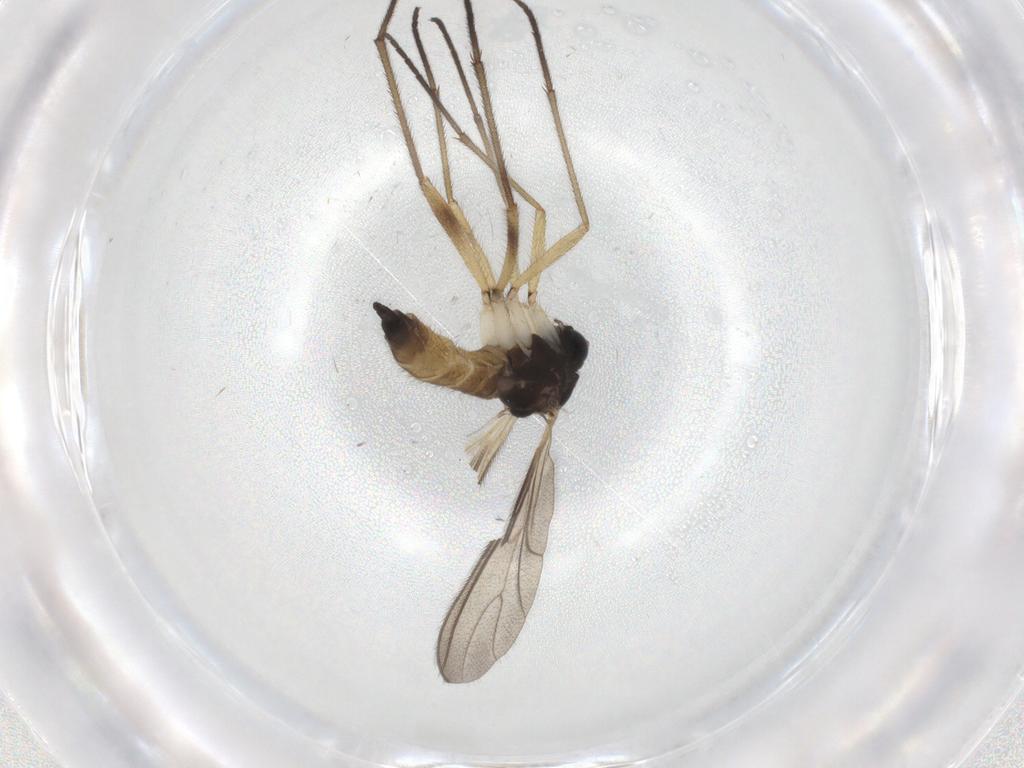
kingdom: Animalia
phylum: Arthropoda
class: Insecta
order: Diptera
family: Sciaridae
